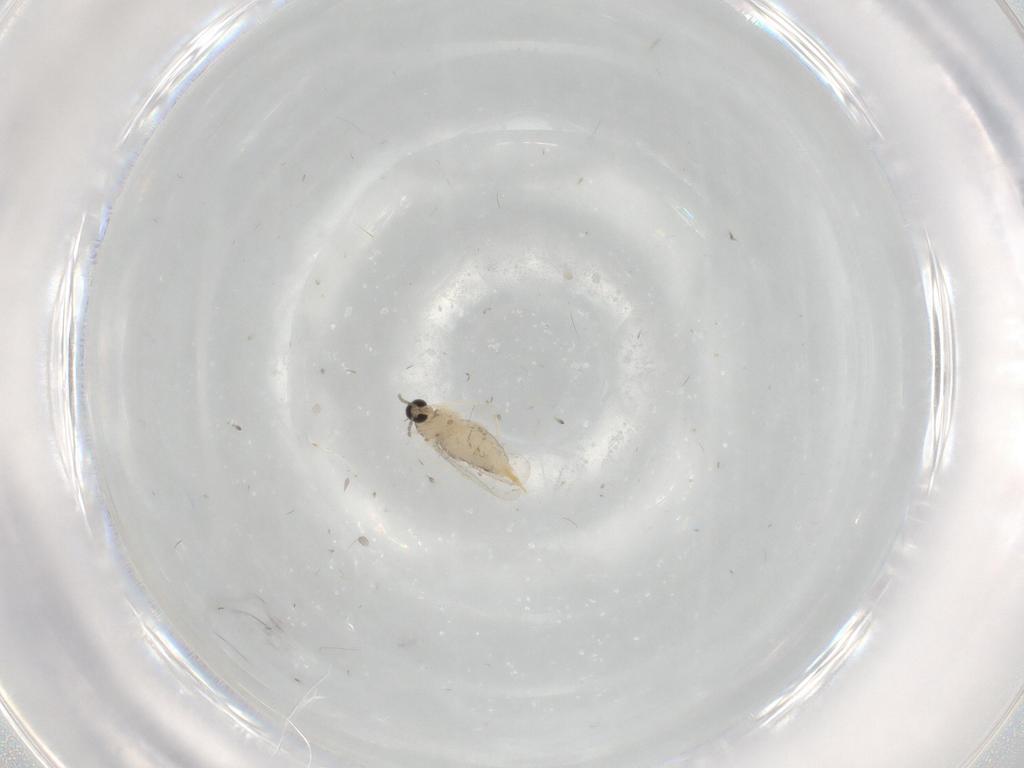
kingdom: Animalia
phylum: Arthropoda
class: Insecta
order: Diptera
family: Cecidomyiidae
